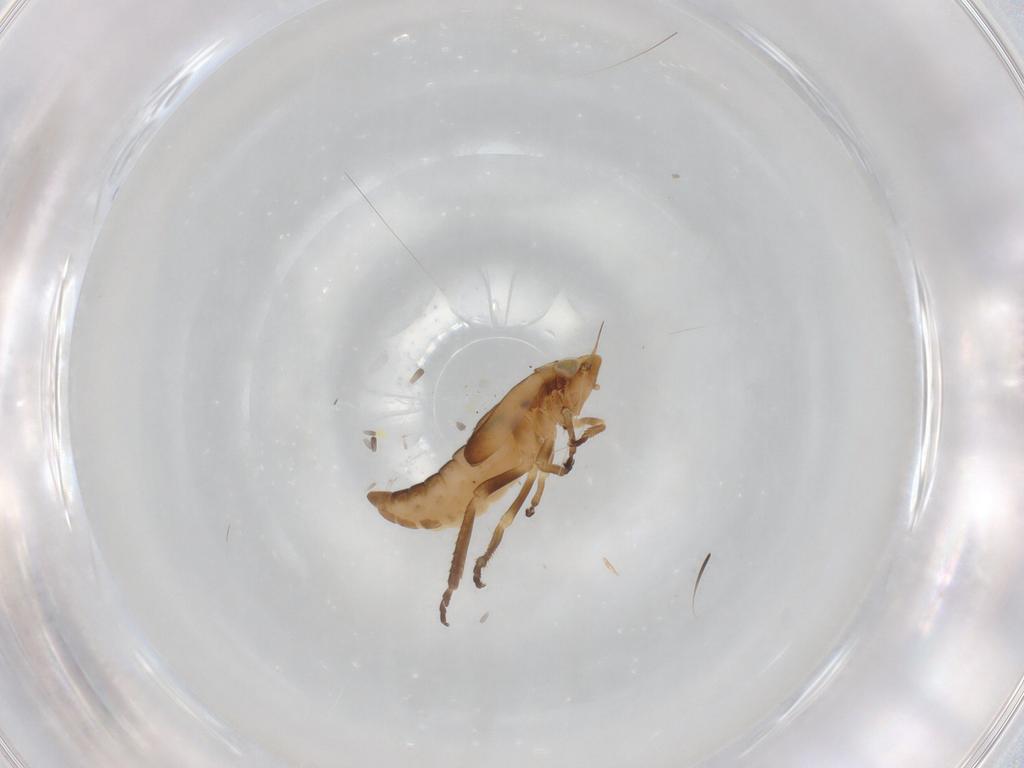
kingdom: Animalia
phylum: Arthropoda
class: Insecta
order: Hemiptera
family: Cicadellidae
